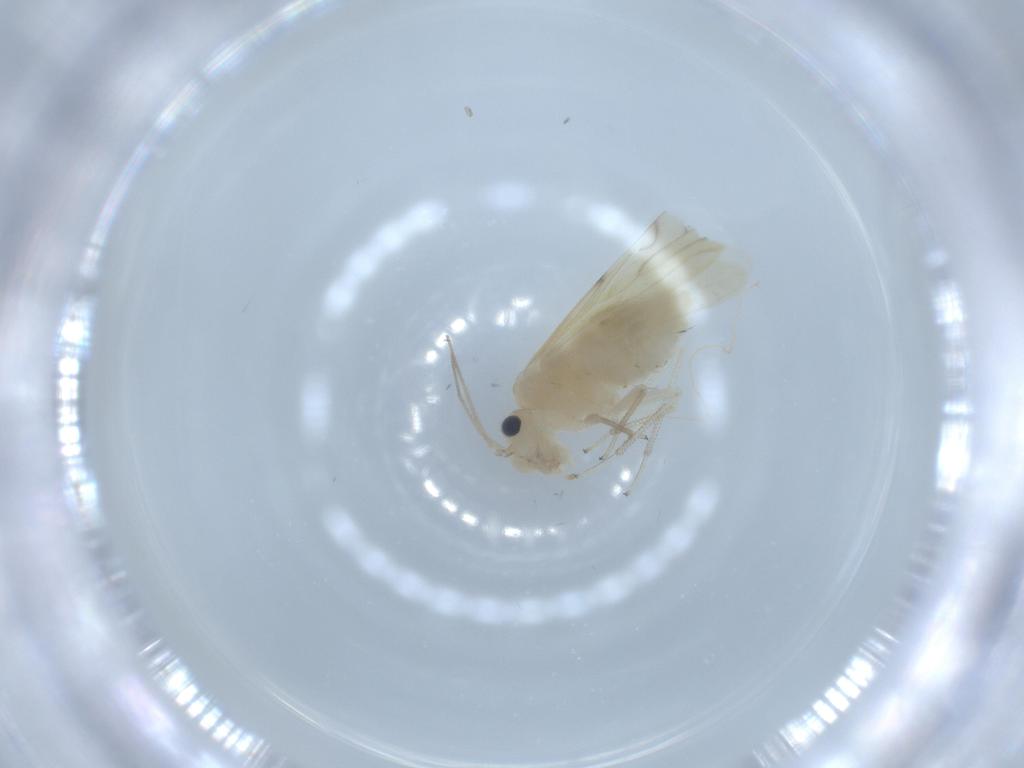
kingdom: Animalia
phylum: Arthropoda
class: Insecta
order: Psocodea
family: Caeciliusidae
